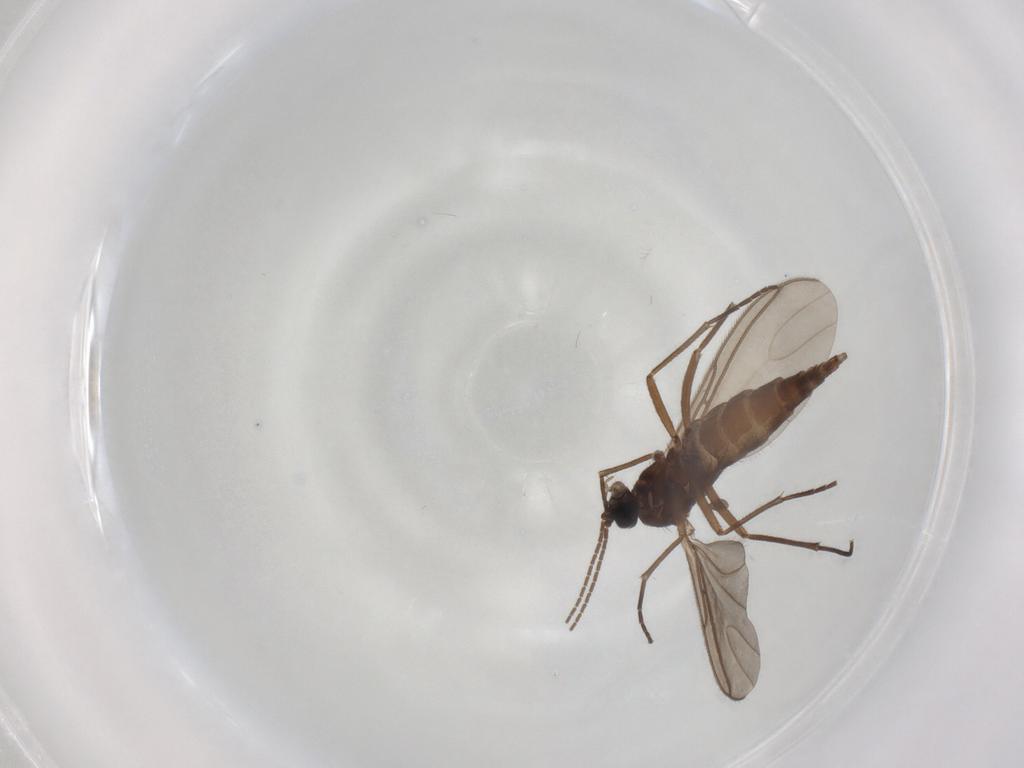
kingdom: Animalia
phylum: Arthropoda
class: Insecta
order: Diptera
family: Sciaridae
